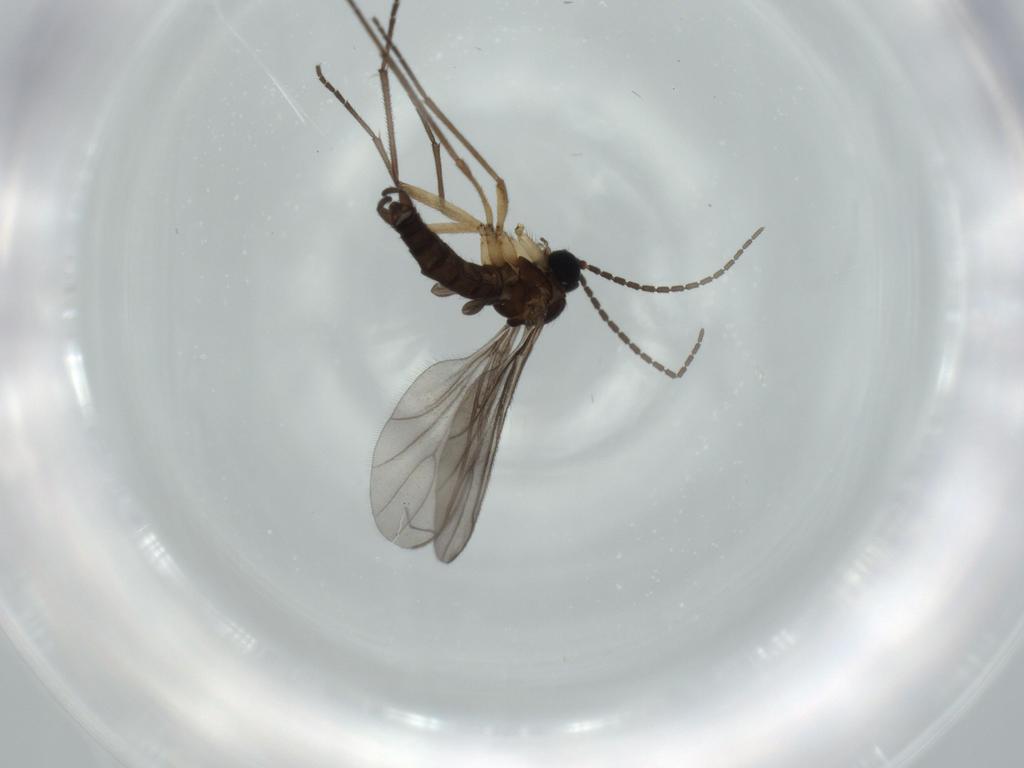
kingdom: Animalia
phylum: Arthropoda
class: Insecta
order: Diptera
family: Sciaridae
